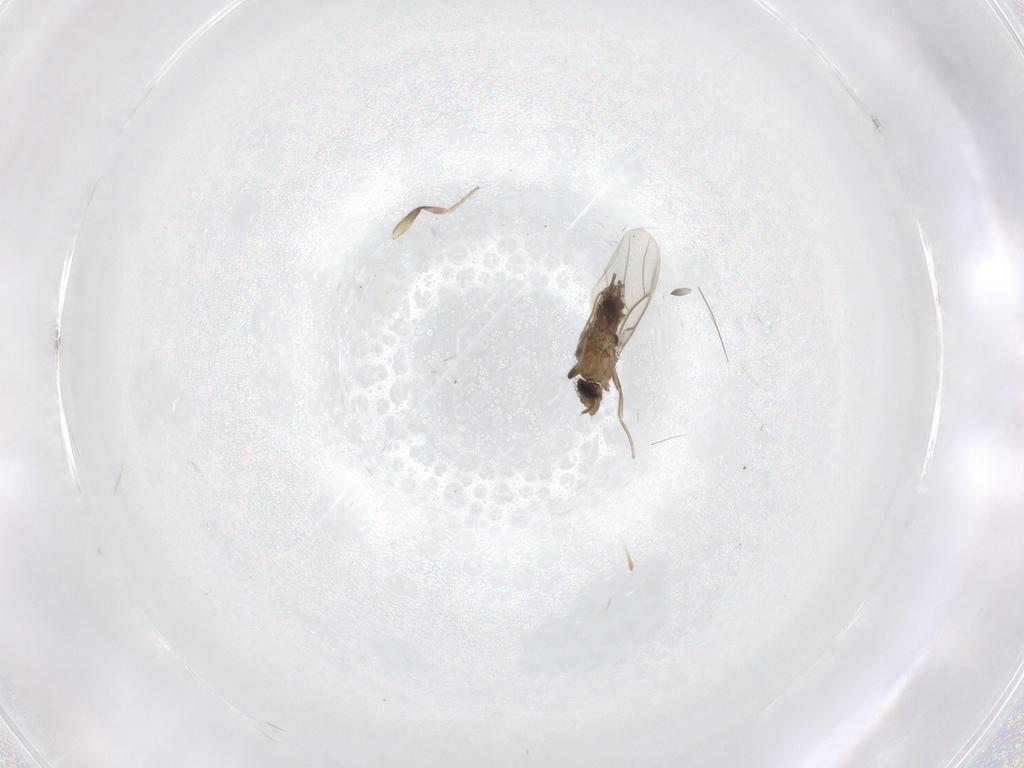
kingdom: Animalia
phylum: Arthropoda
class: Insecta
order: Diptera
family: Phoridae
